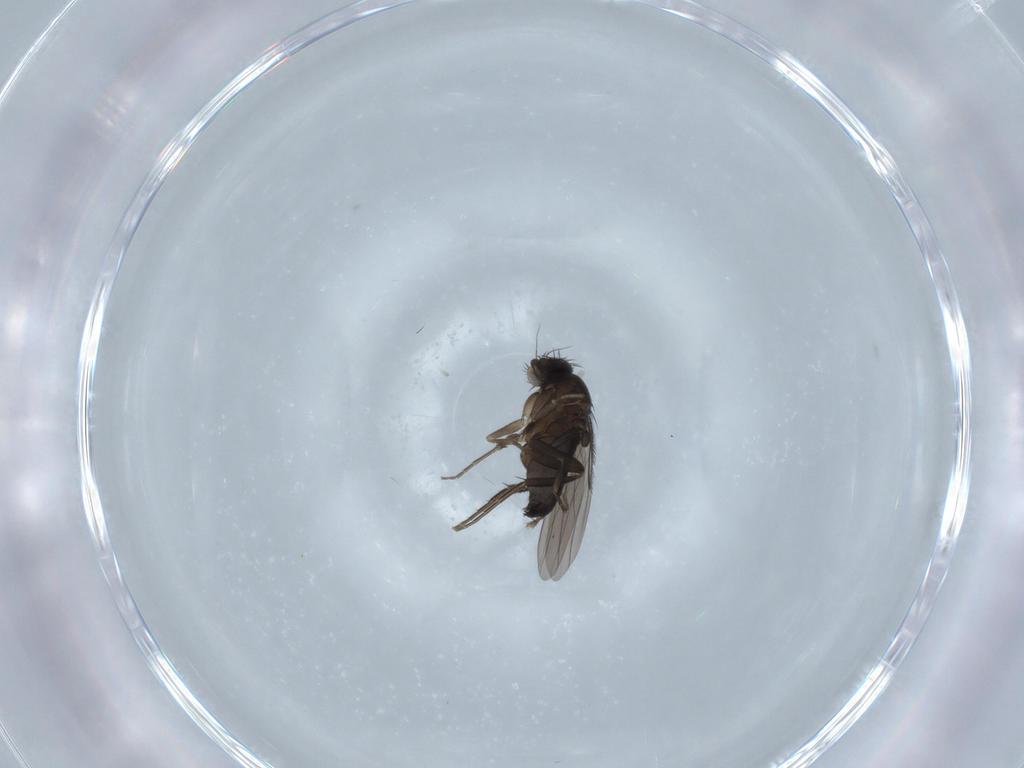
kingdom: Animalia
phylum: Arthropoda
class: Insecta
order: Diptera
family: Phoridae
